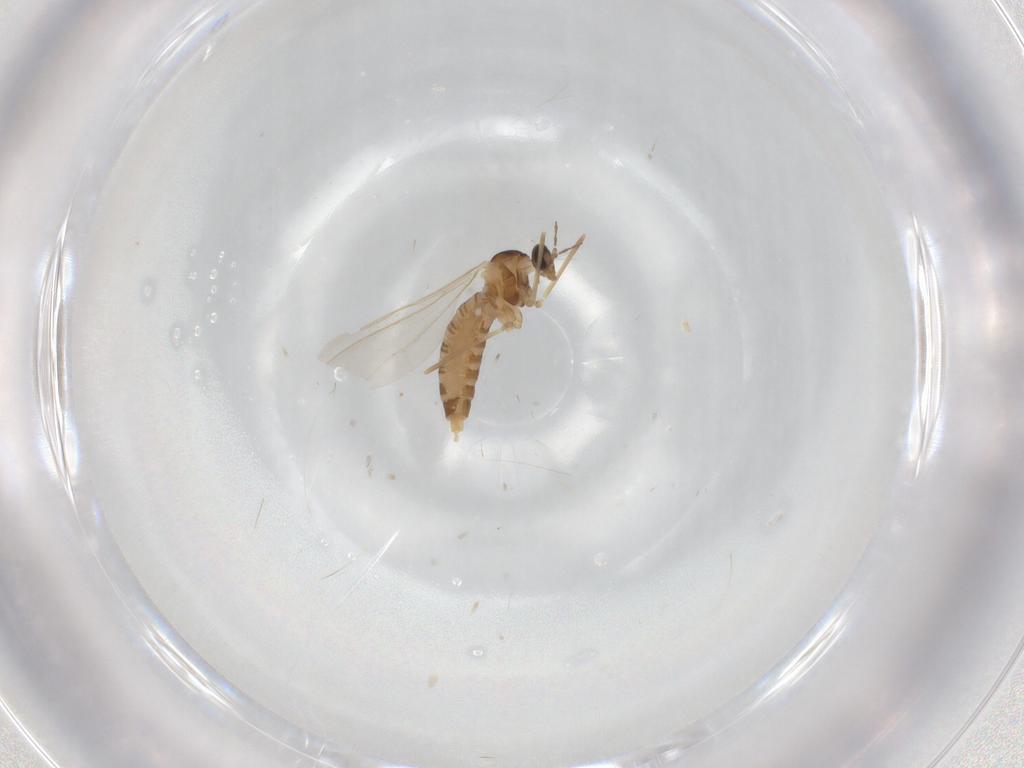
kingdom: Animalia
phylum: Arthropoda
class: Insecta
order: Diptera
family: Cecidomyiidae
